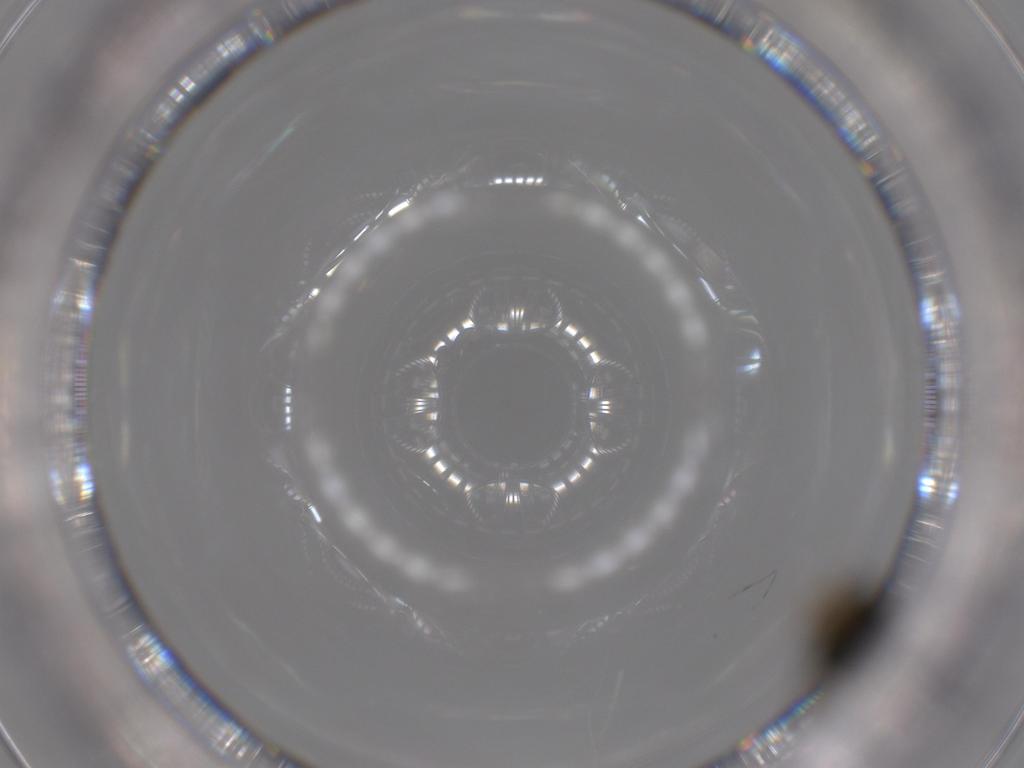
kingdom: Animalia
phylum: Arthropoda
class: Insecta
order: Hymenoptera
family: Pteromalidae
